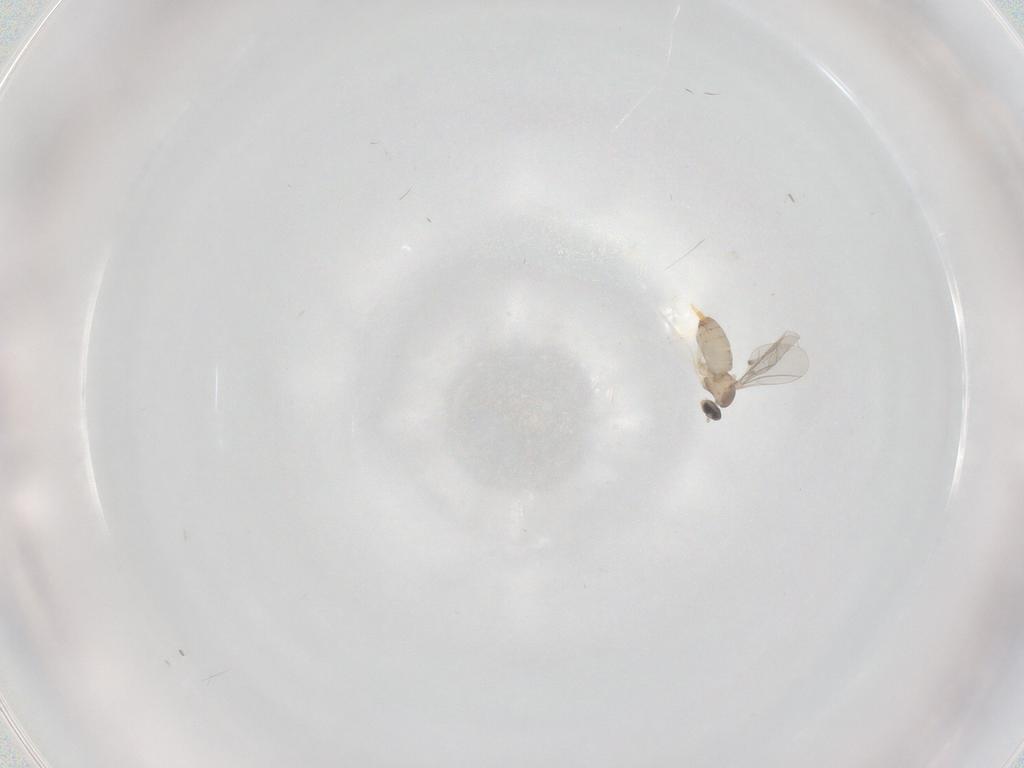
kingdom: Animalia
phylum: Arthropoda
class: Insecta
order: Diptera
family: Cecidomyiidae
